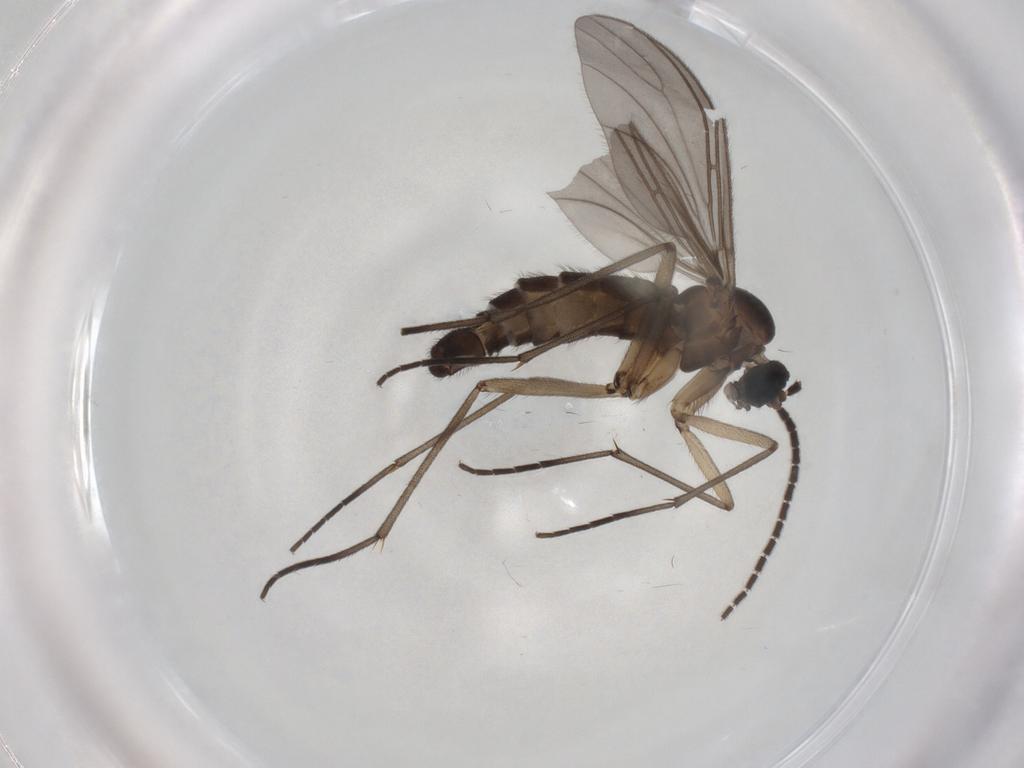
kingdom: Animalia
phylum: Arthropoda
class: Insecta
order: Diptera
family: Sciaridae
